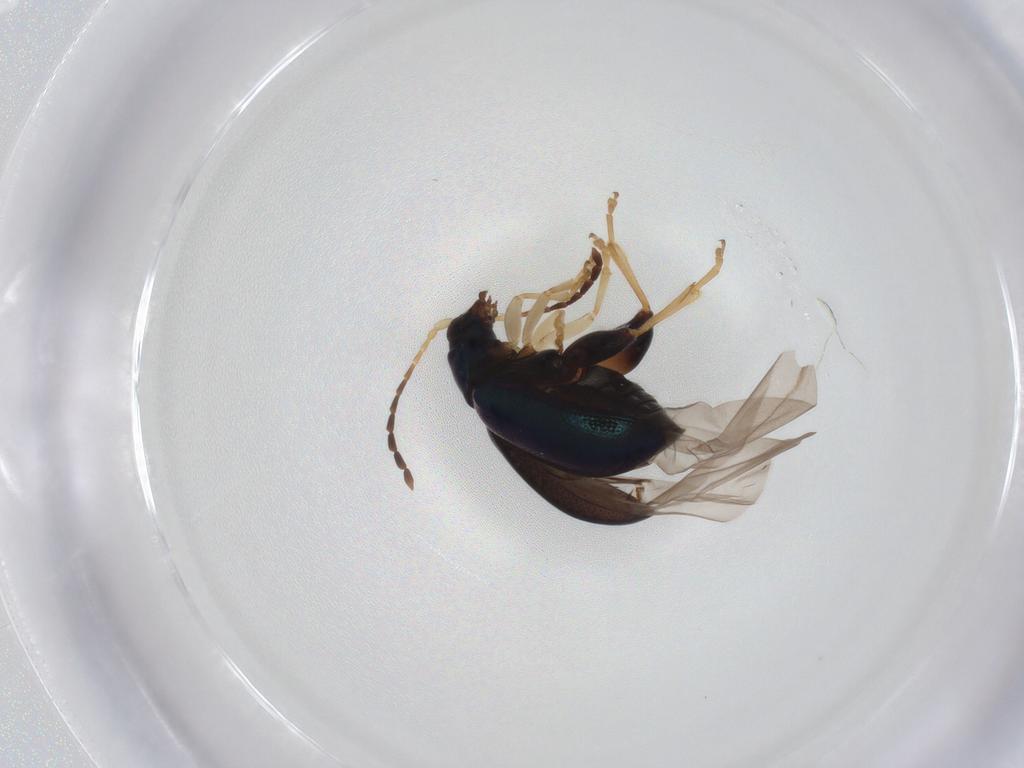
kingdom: Animalia
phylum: Arthropoda
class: Insecta
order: Coleoptera
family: Chrysomelidae
